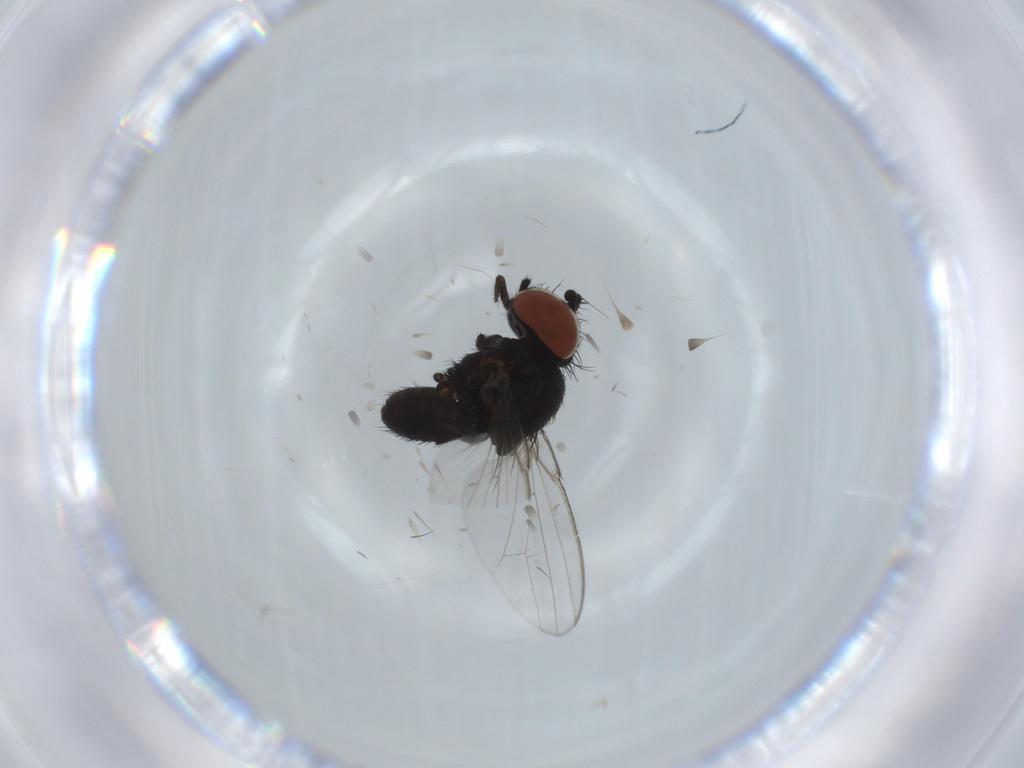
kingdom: Animalia
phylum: Arthropoda
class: Insecta
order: Diptera
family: Milichiidae
